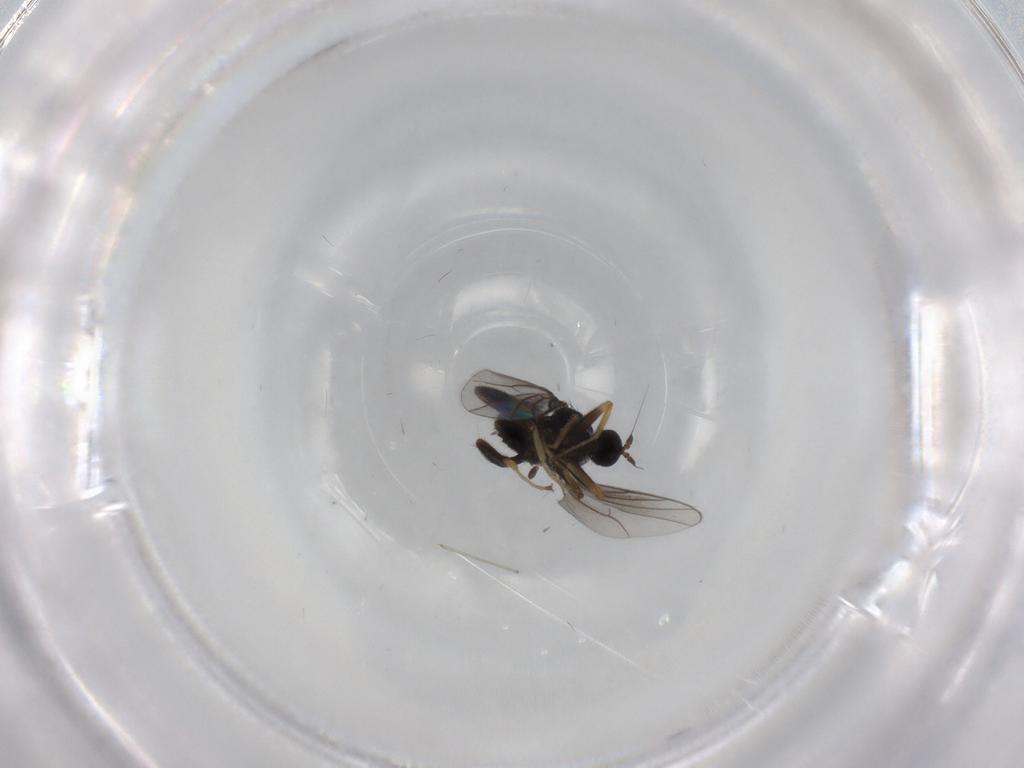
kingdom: Animalia
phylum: Arthropoda
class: Insecta
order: Diptera
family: Hybotidae
